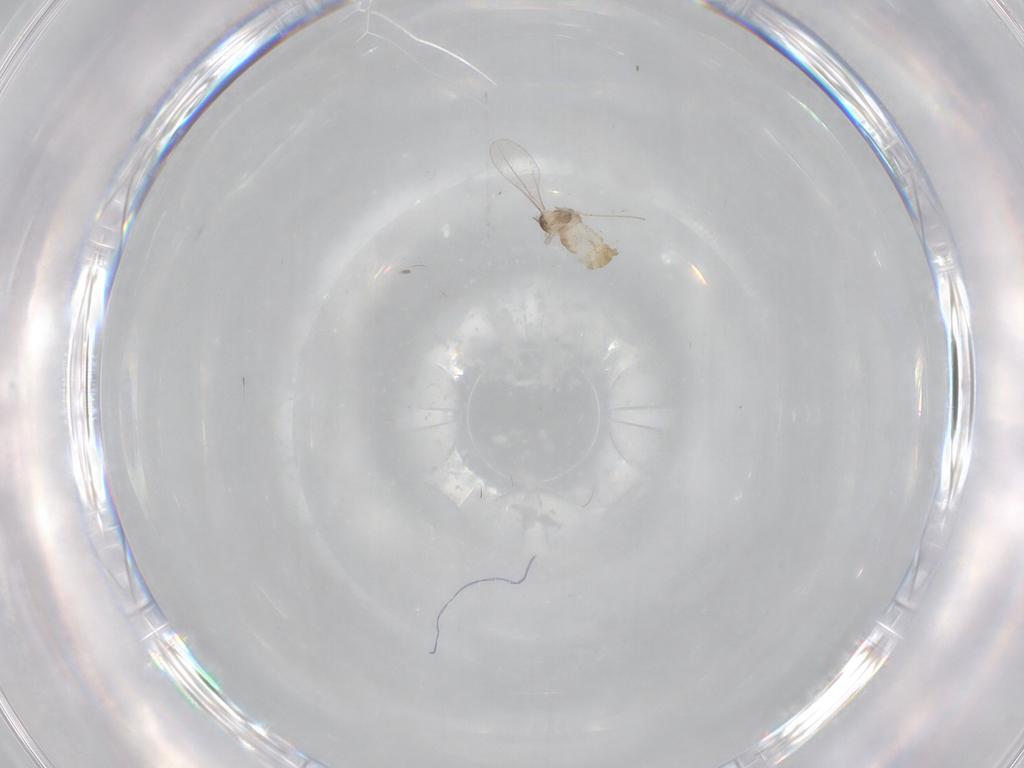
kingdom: Animalia
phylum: Arthropoda
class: Insecta
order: Diptera
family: Cecidomyiidae
